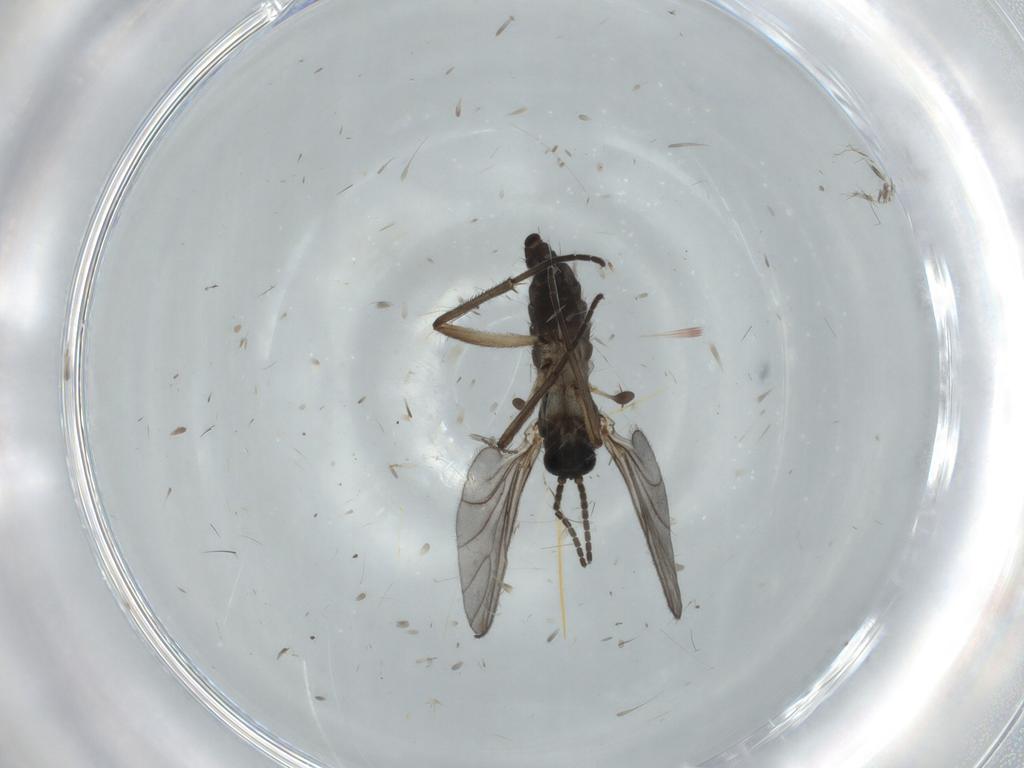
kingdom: Animalia
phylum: Arthropoda
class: Insecta
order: Diptera
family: Sciaridae
